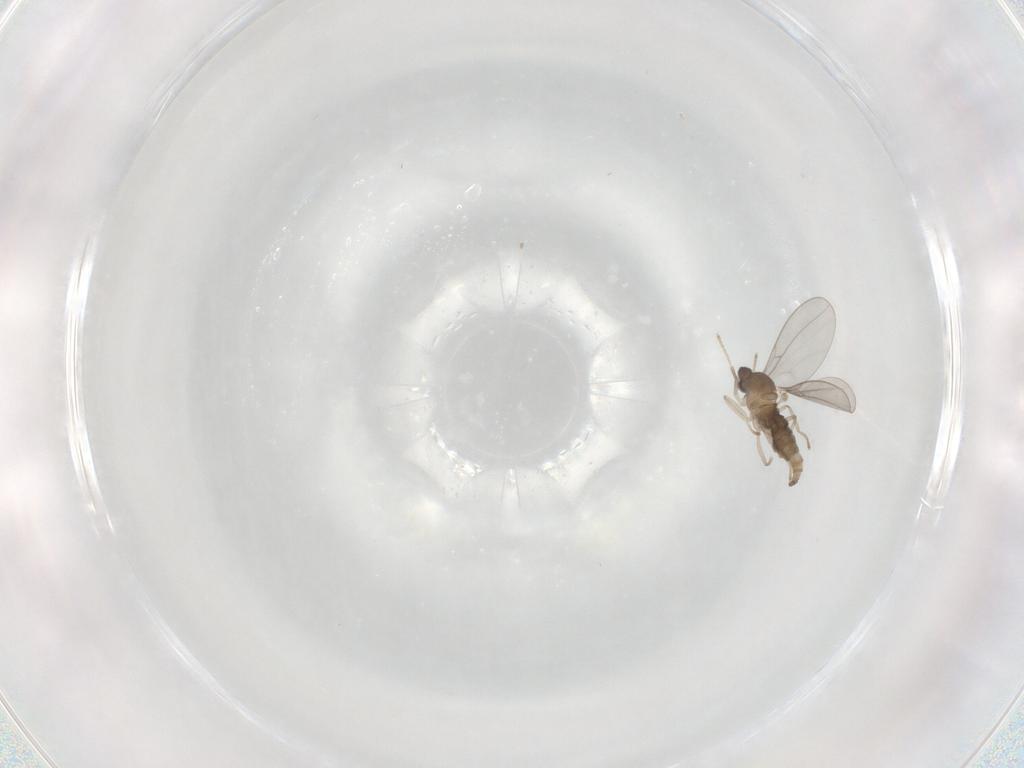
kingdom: Animalia
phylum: Arthropoda
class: Insecta
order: Diptera
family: Cecidomyiidae
